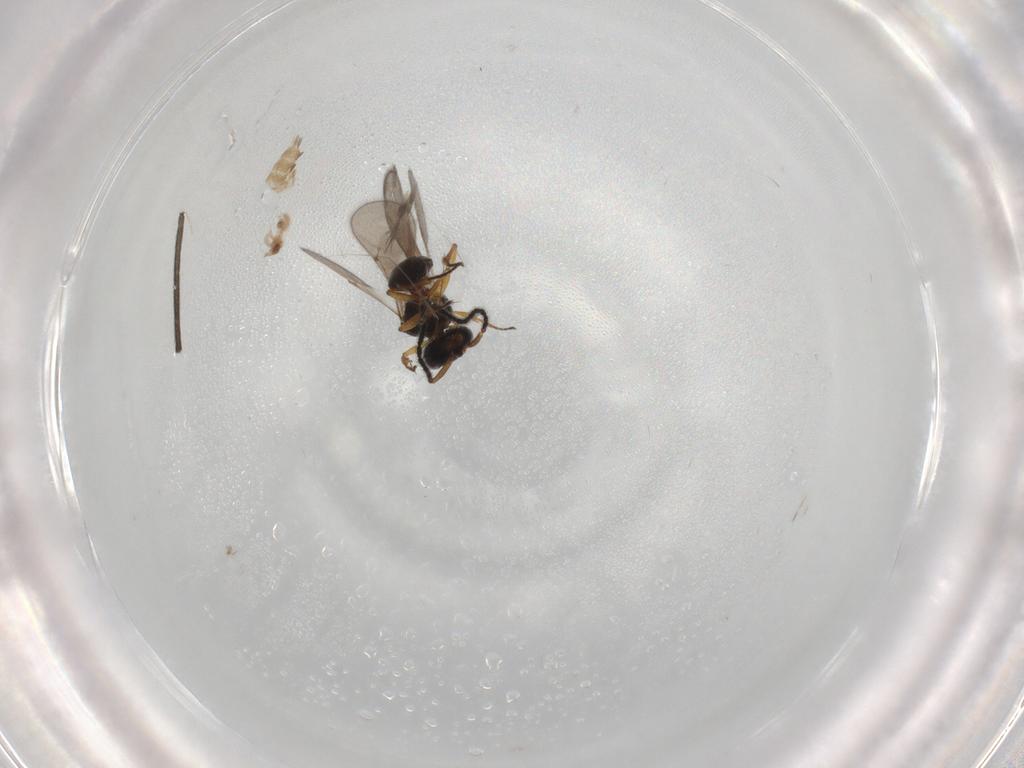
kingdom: Animalia
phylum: Arthropoda
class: Insecta
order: Hymenoptera
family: Scelionidae
